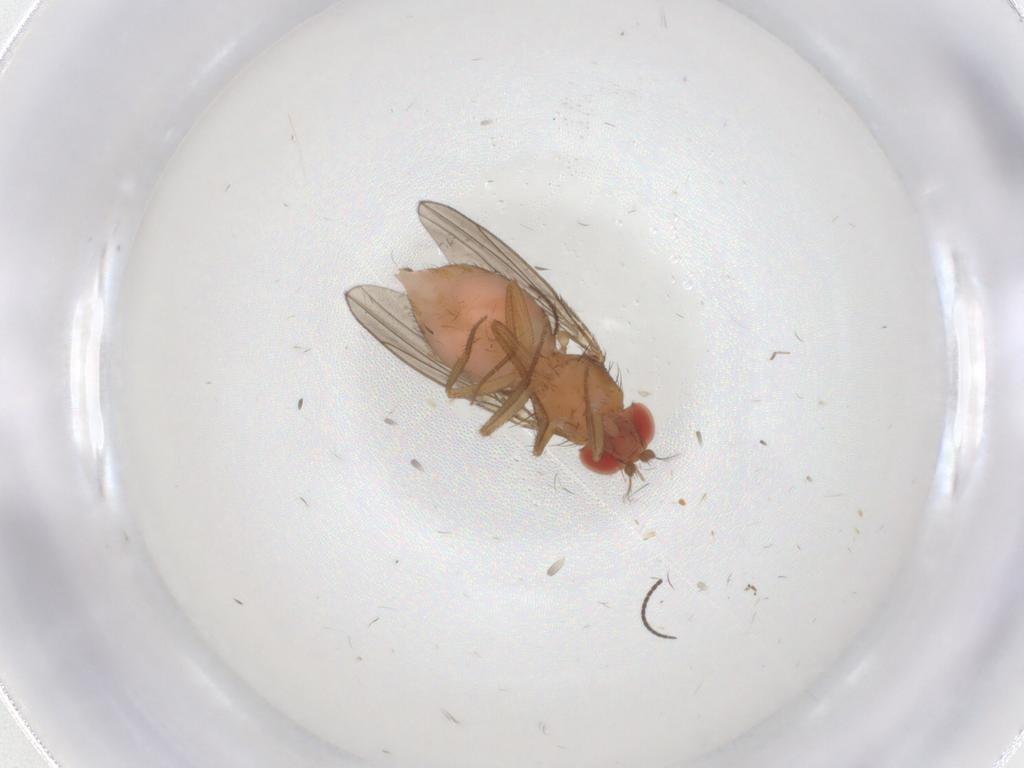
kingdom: Animalia
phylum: Arthropoda
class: Insecta
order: Diptera
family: Drosophilidae
